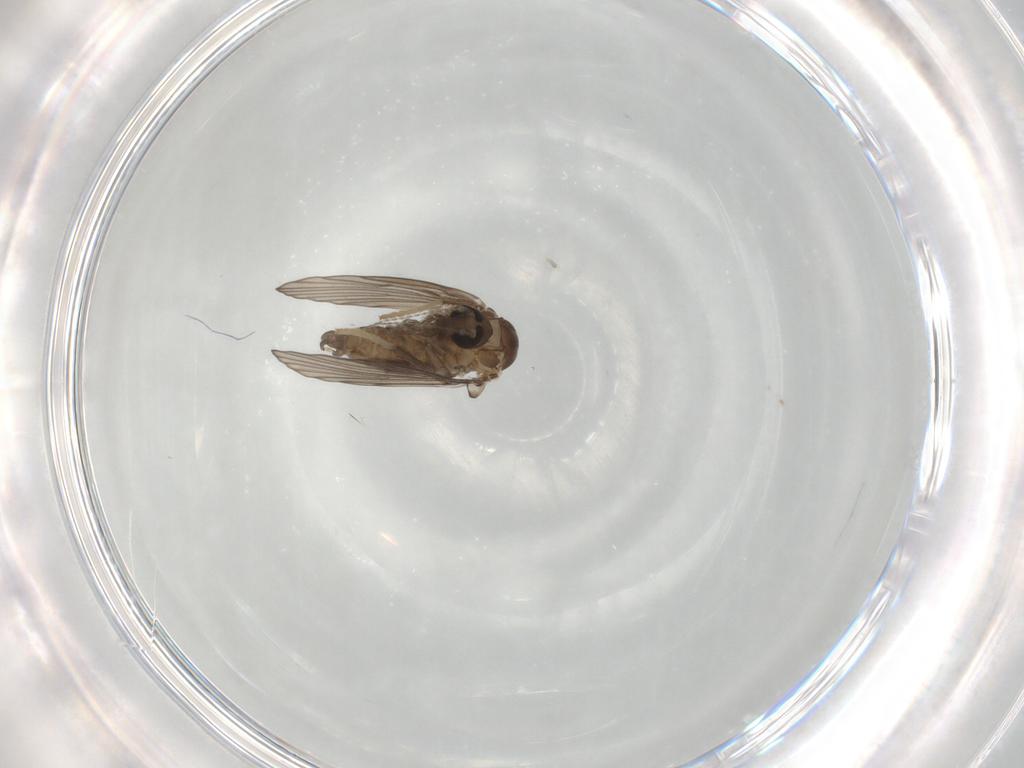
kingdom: Animalia
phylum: Arthropoda
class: Insecta
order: Diptera
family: Psychodidae
